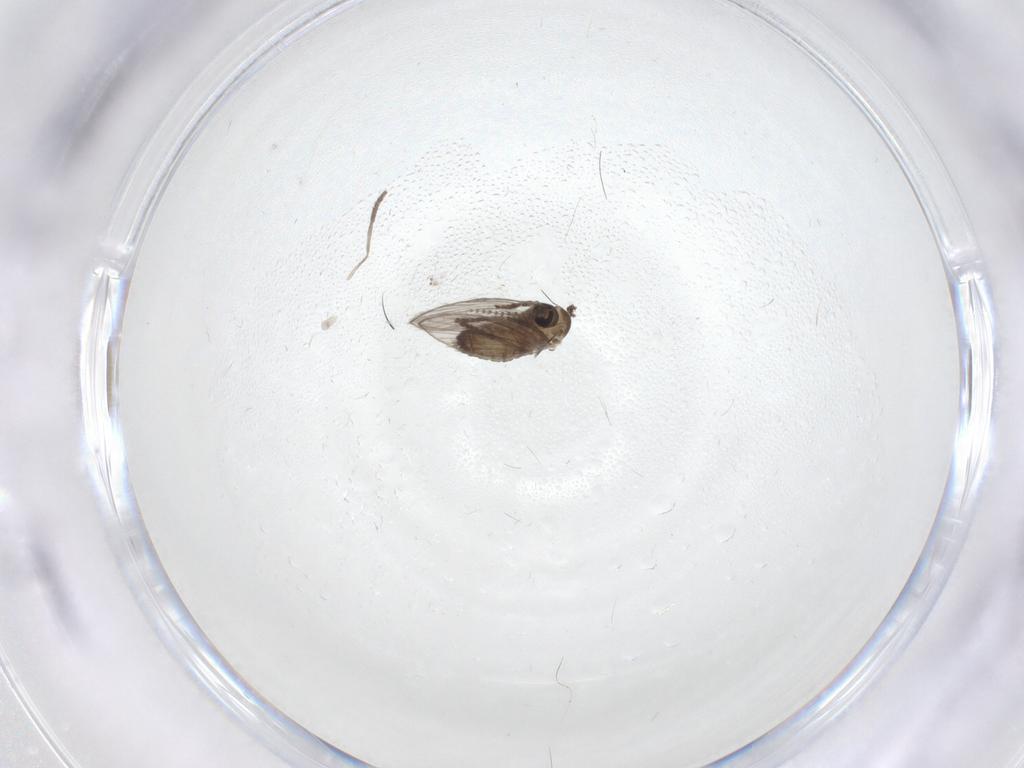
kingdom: Animalia
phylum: Arthropoda
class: Insecta
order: Diptera
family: Psychodidae
